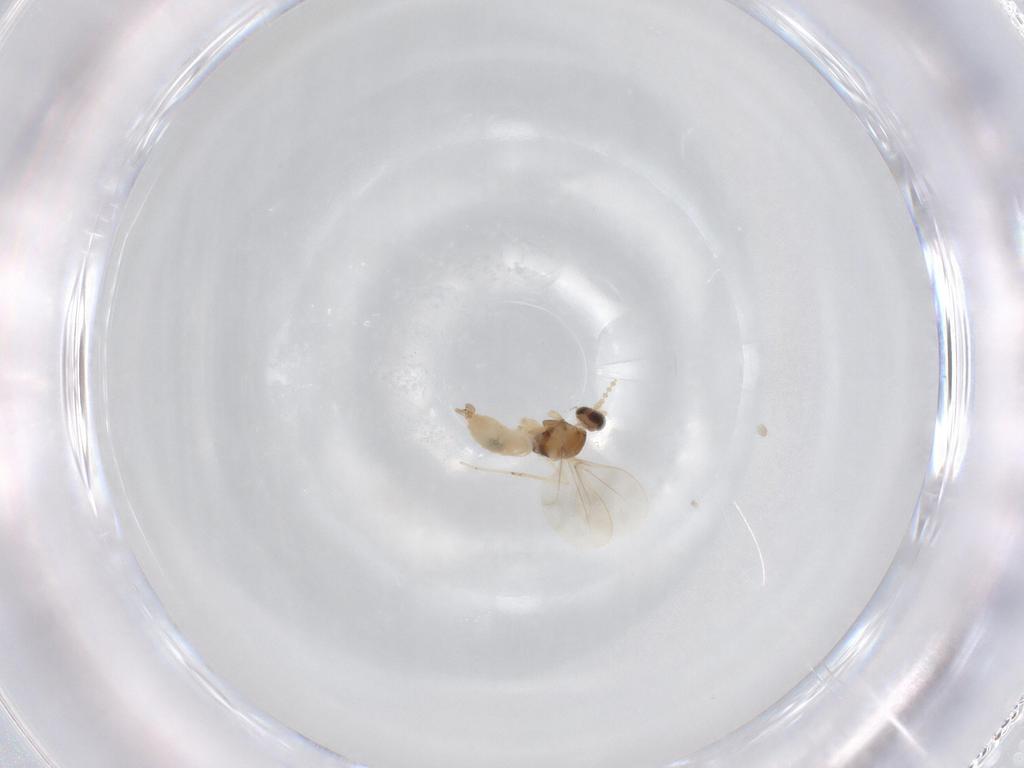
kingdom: Animalia
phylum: Arthropoda
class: Insecta
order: Diptera
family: Cecidomyiidae
